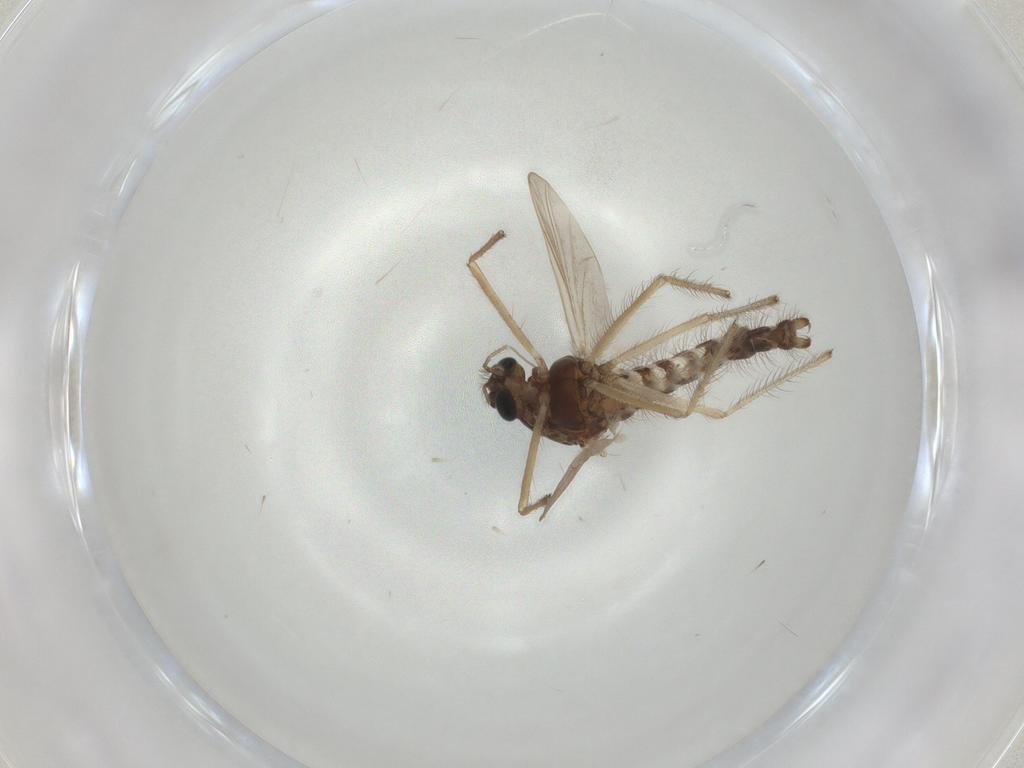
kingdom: Animalia
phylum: Arthropoda
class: Insecta
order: Diptera
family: Chironomidae
